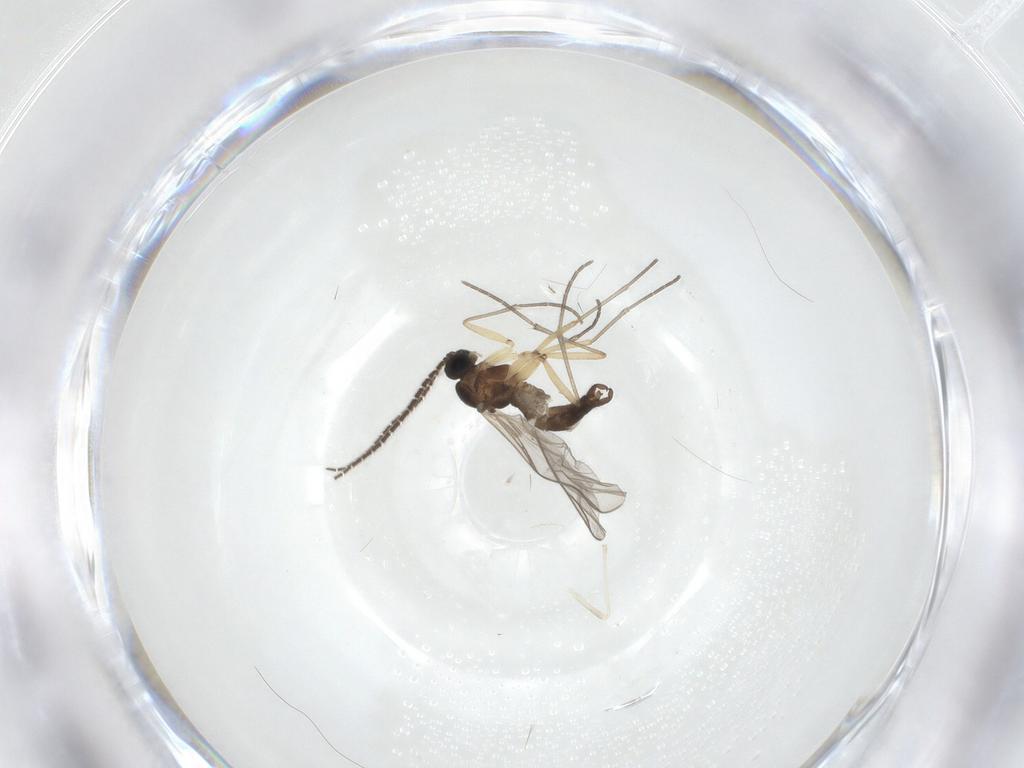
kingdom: Animalia
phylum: Arthropoda
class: Insecta
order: Diptera
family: Sciaridae
